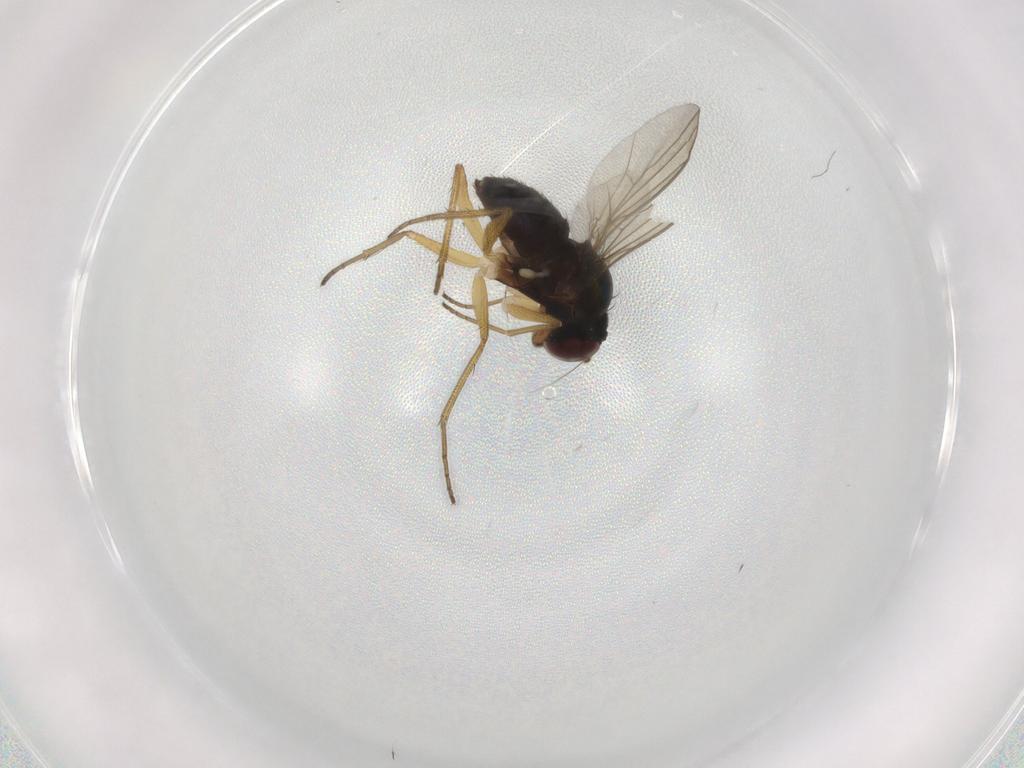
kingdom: Animalia
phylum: Arthropoda
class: Insecta
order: Diptera
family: Dolichopodidae
